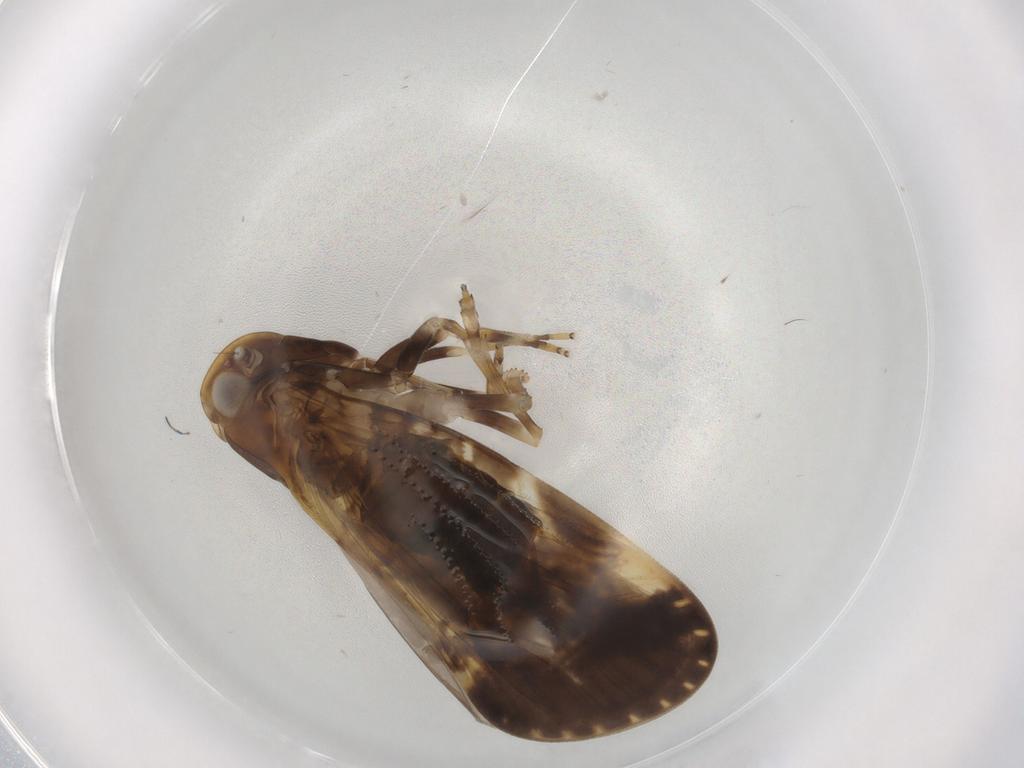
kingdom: Animalia
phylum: Arthropoda
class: Insecta
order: Hemiptera
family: Cixiidae
